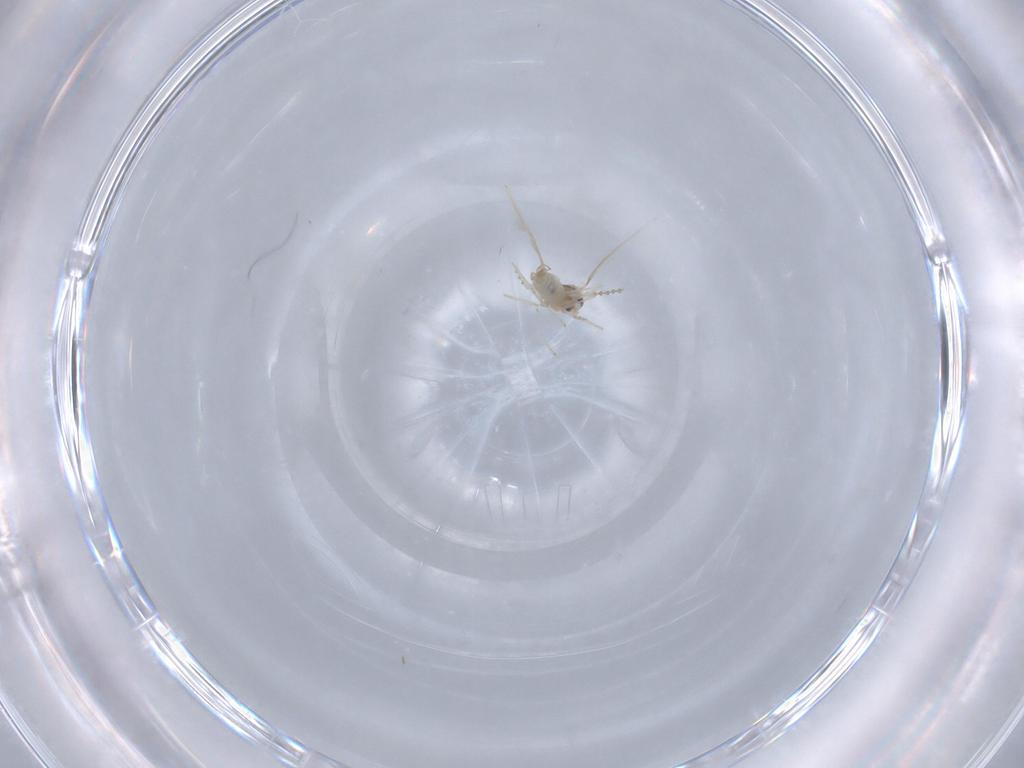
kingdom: Animalia
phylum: Arthropoda
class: Insecta
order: Diptera
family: Cecidomyiidae
